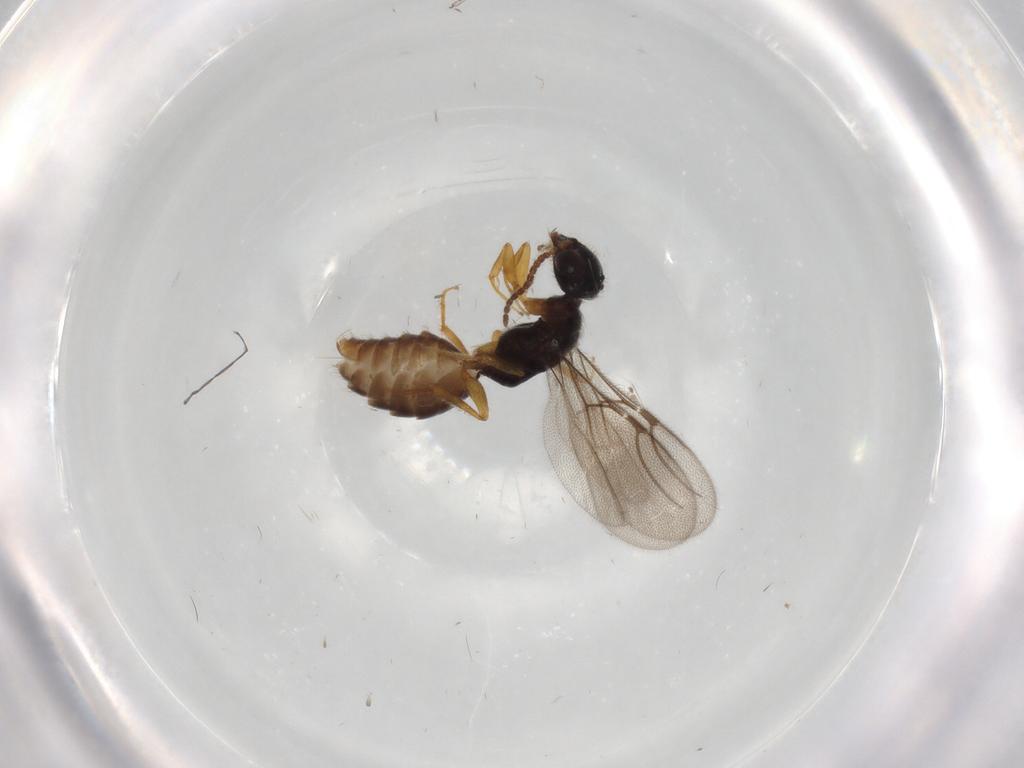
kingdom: Animalia
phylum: Arthropoda
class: Insecta
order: Hymenoptera
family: Bethylidae
